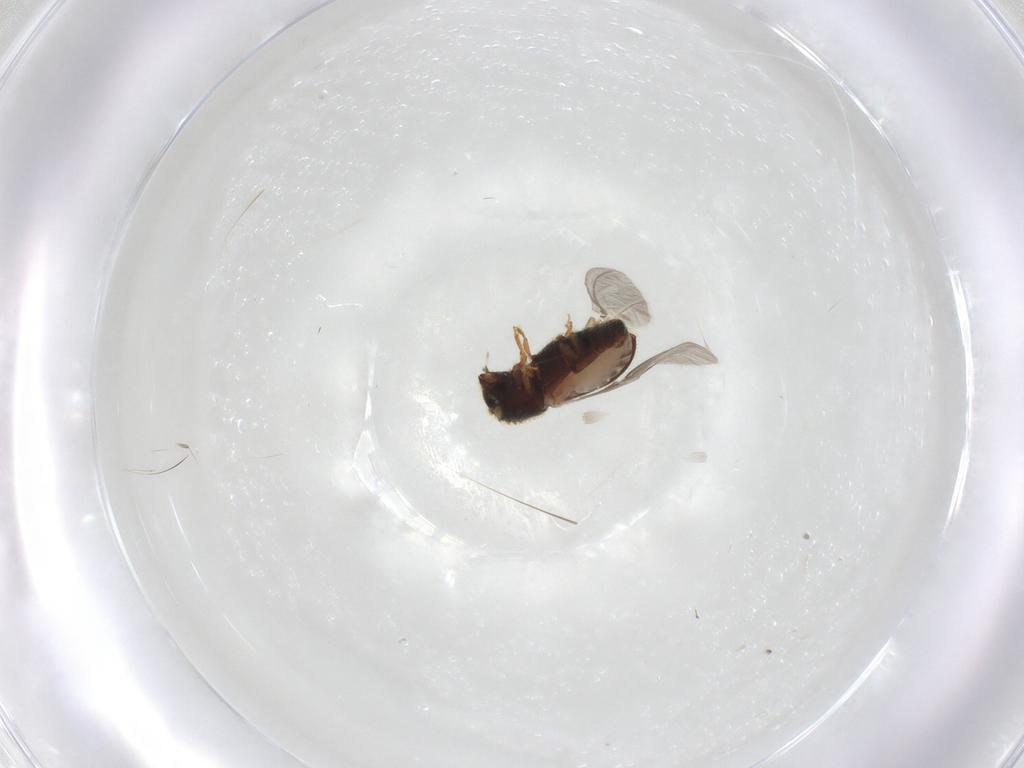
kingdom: Animalia
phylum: Arthropoda
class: Insecta
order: Coleoptera
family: Curculionidae
